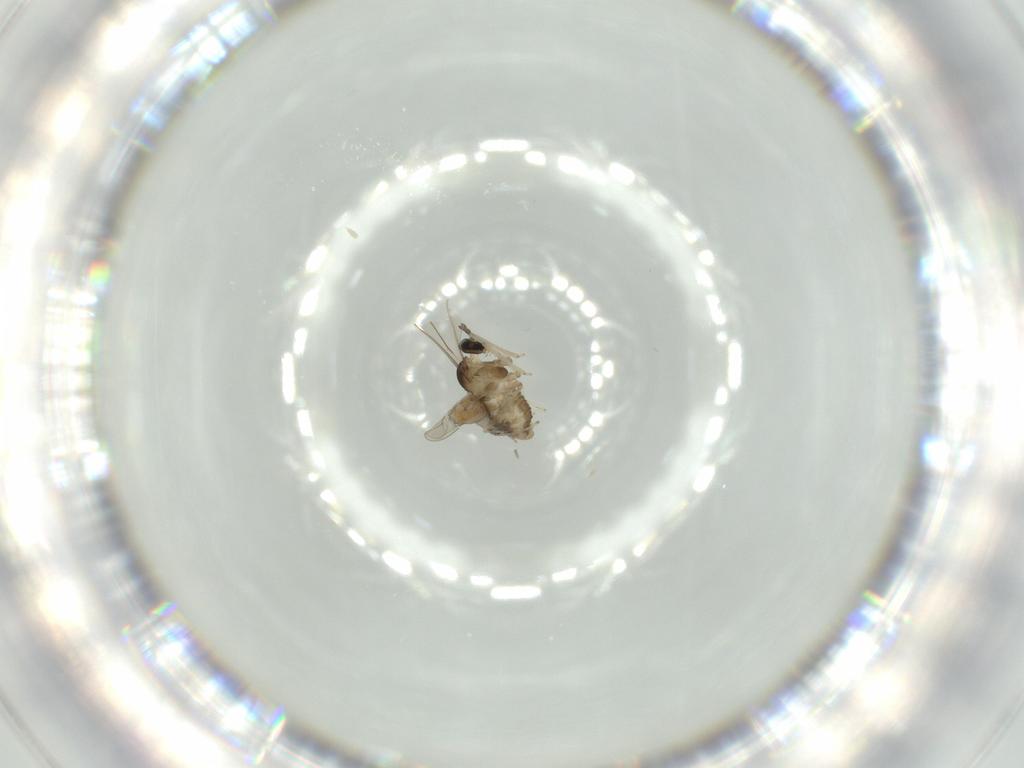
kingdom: Animalia
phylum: Arthropoda
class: Insecta
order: Diptera
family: Cecidomyiidae
